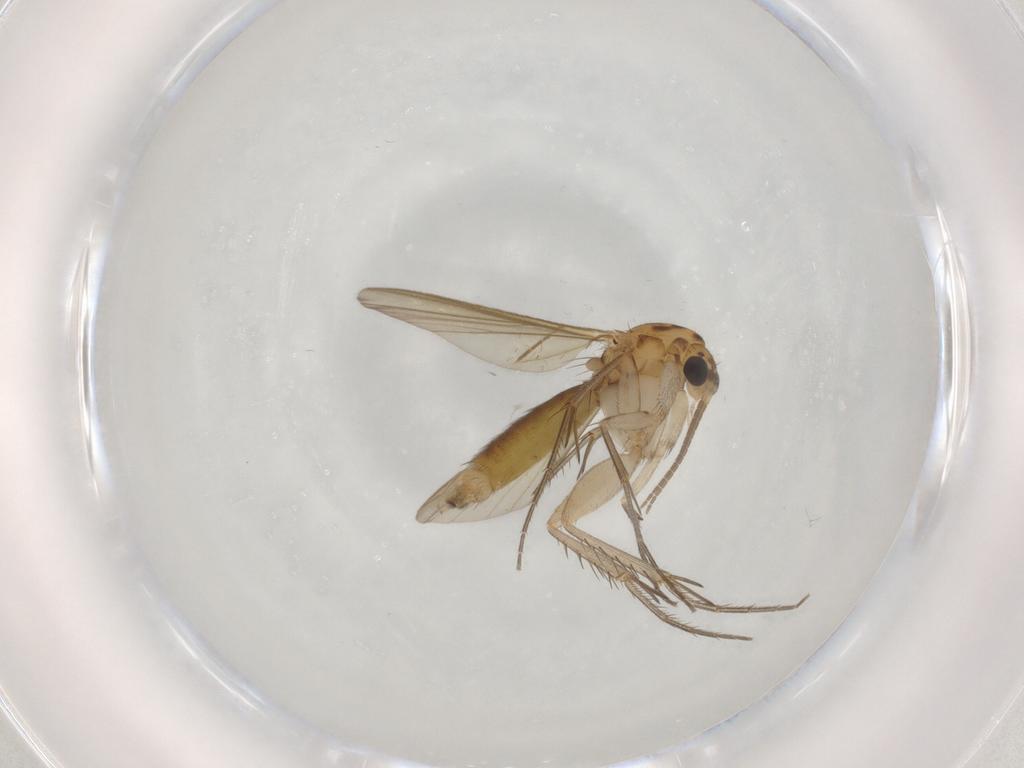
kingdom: Animalia
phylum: Arthropoda
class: Insecta
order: Diptera
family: Mycetophilidae
